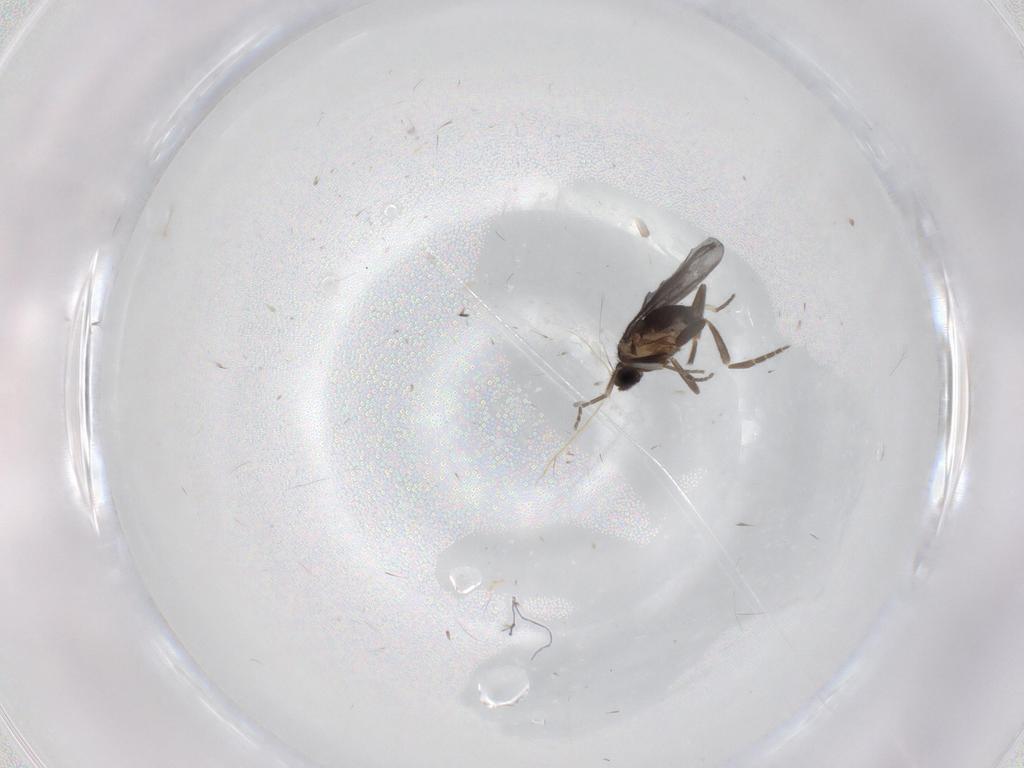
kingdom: Animalia
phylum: Arthropoda
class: Insecta
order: Diptera
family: Phoridae
